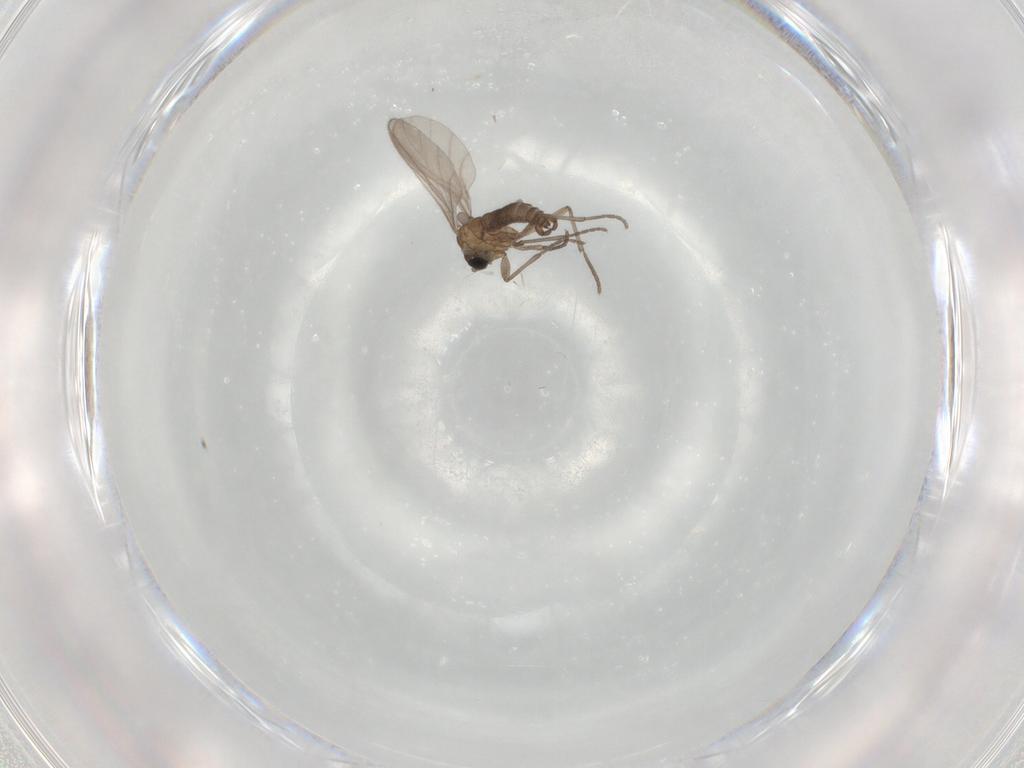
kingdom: Animalia
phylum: Arthropoda
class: Insecta
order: Diptera
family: Sciaridae
